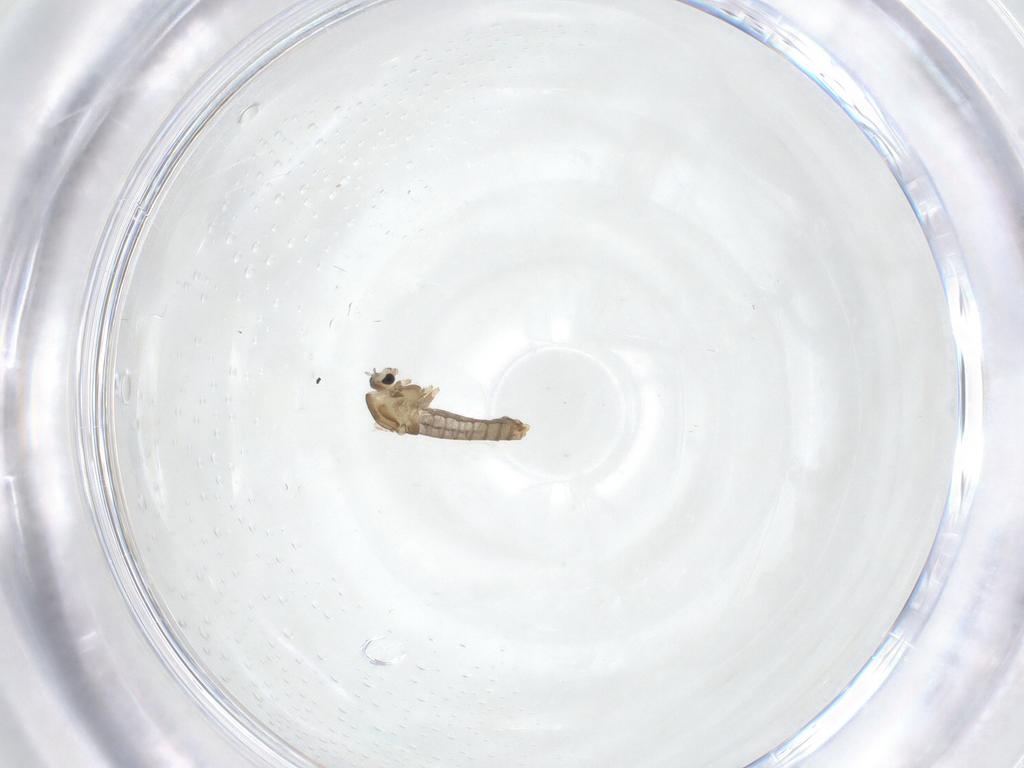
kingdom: Animalia
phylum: Arthropoda
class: Insecta
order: Diptera
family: Chironomidae
